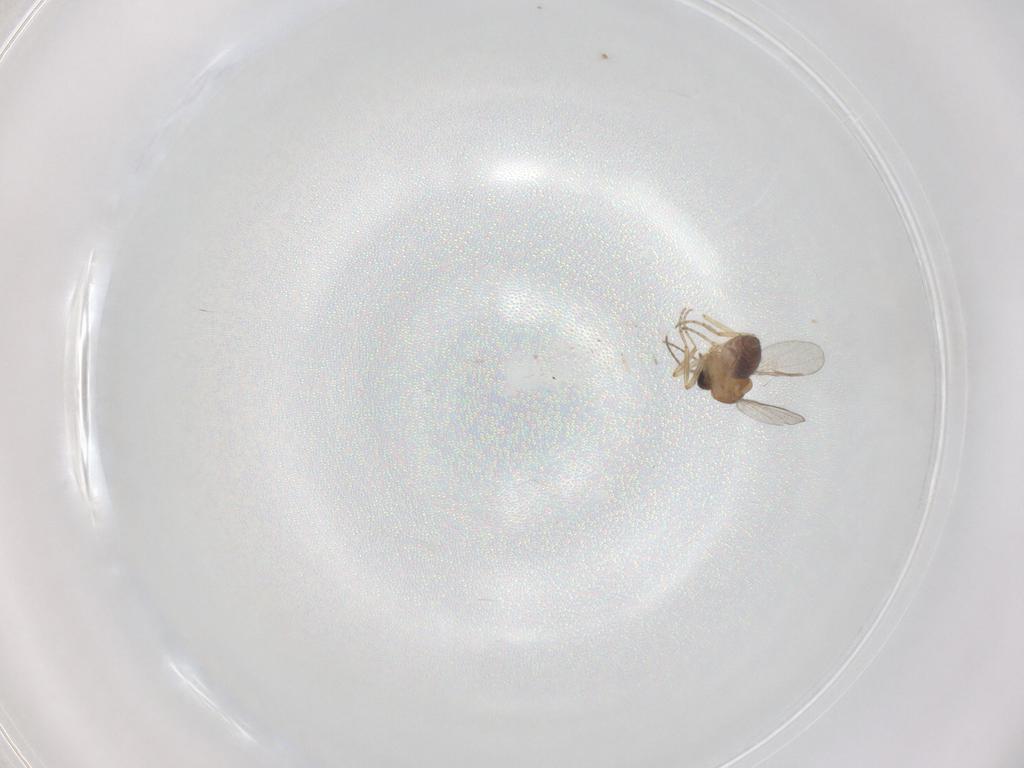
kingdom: Animalia
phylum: Arthropoda
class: Insecta
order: Diptera
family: Cecidomyiidae
